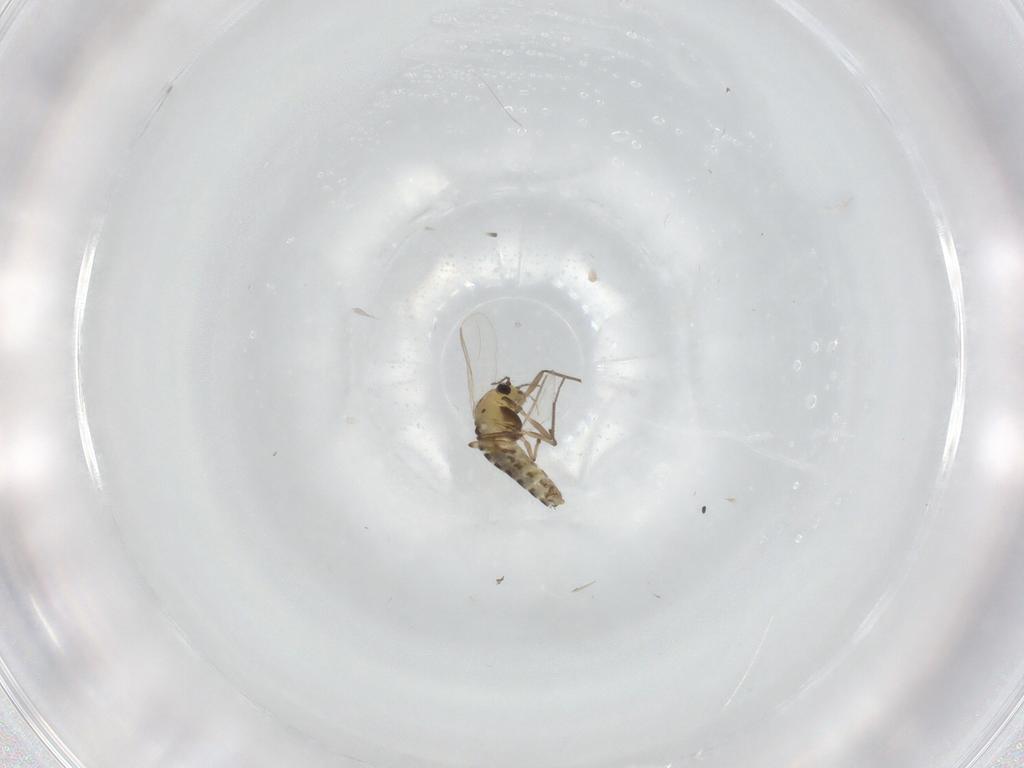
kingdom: Animalia
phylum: Arthropoda
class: Insecta
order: Diptera
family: Chironomidae
